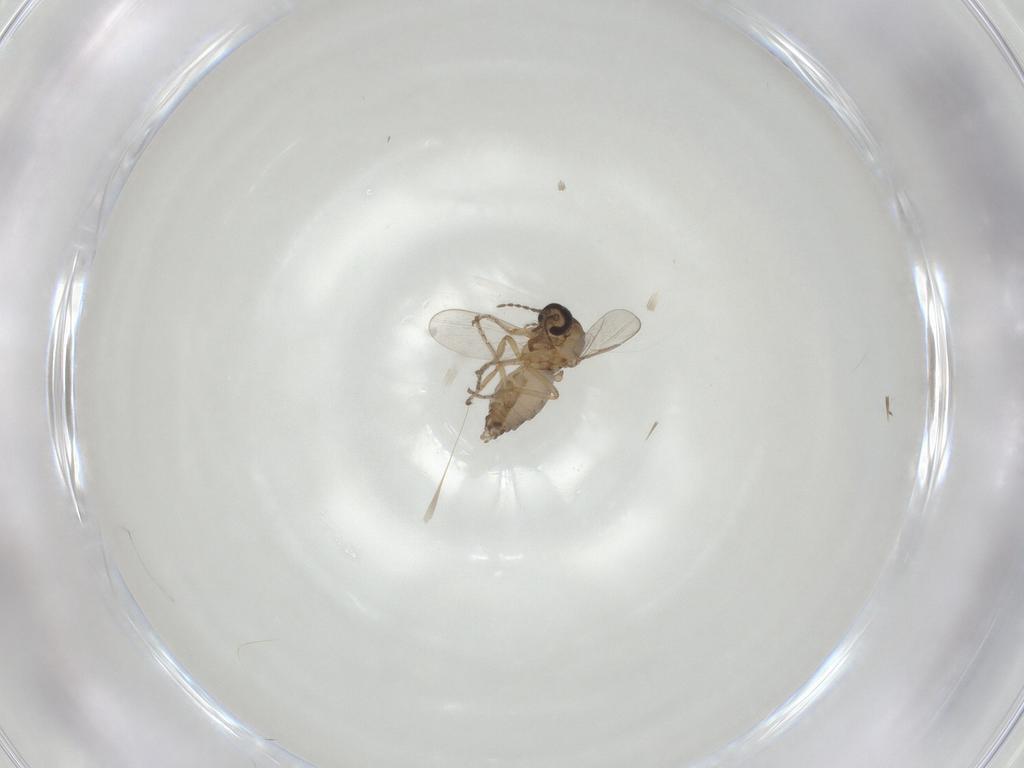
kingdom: Animalia
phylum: Arthropoda
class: Insecta
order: Diptera
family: Ceratopogonidae
